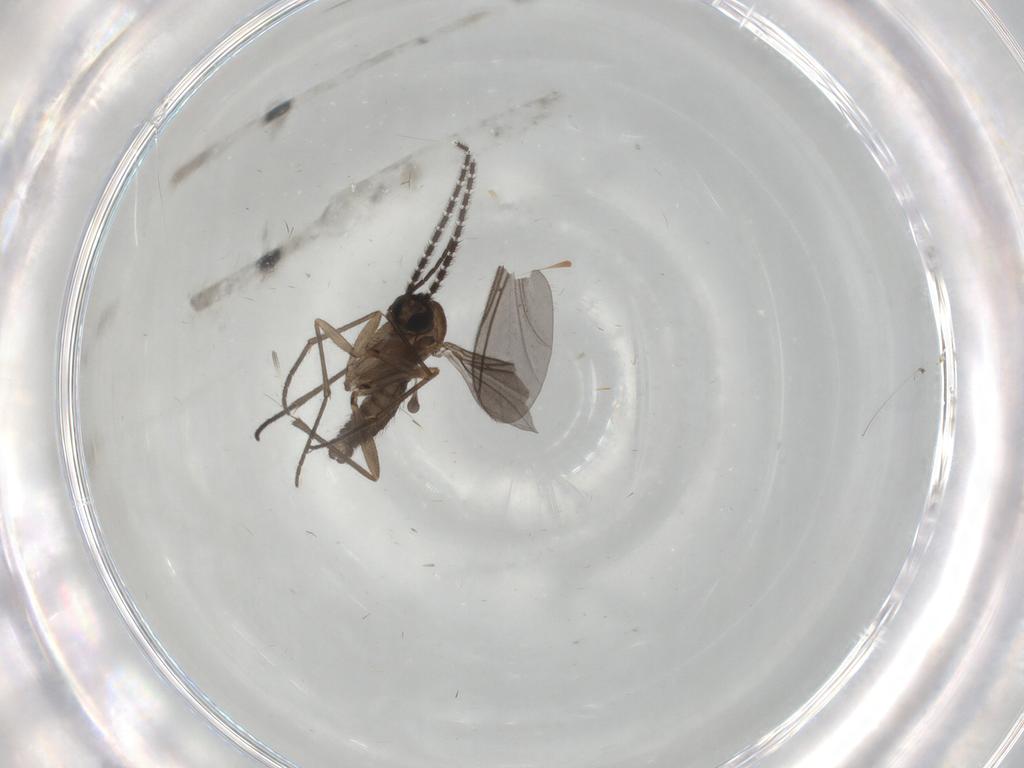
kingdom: Animalia
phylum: Arthropoda
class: Insecta
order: Diptera
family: Sciaridae
